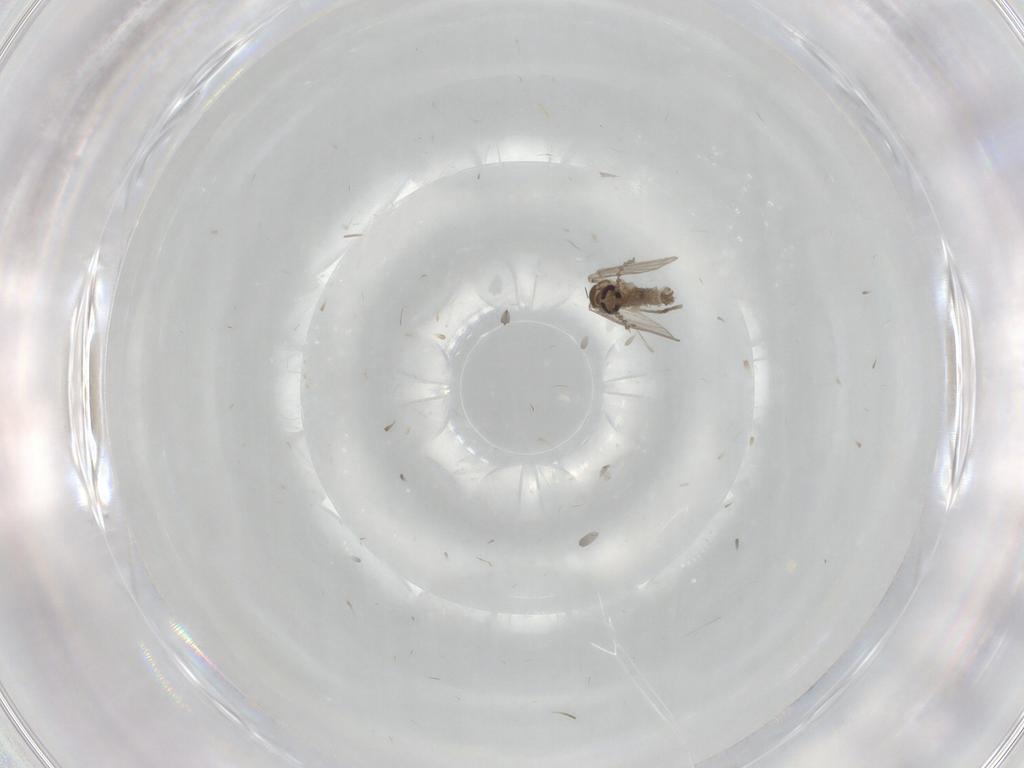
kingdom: Animalia
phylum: Arthropoda
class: Insecta
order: Diptera
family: Psychodidae
